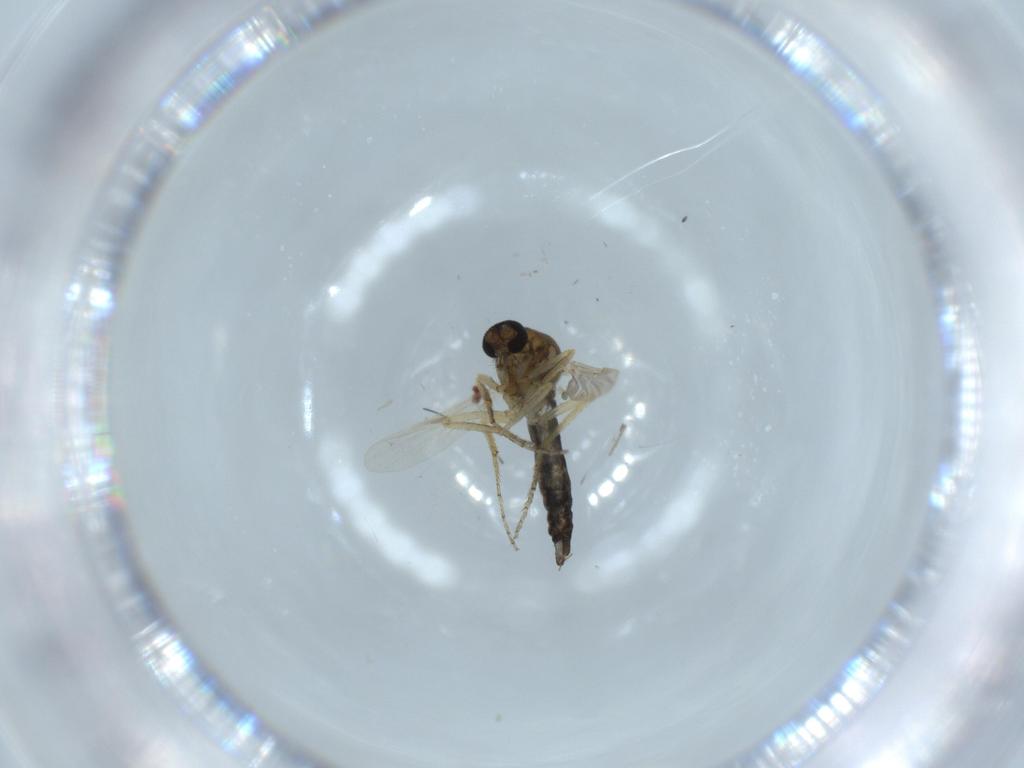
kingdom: Animalia
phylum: Arthropoda
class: Insecta
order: Diptera
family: Ceratopogonidae
